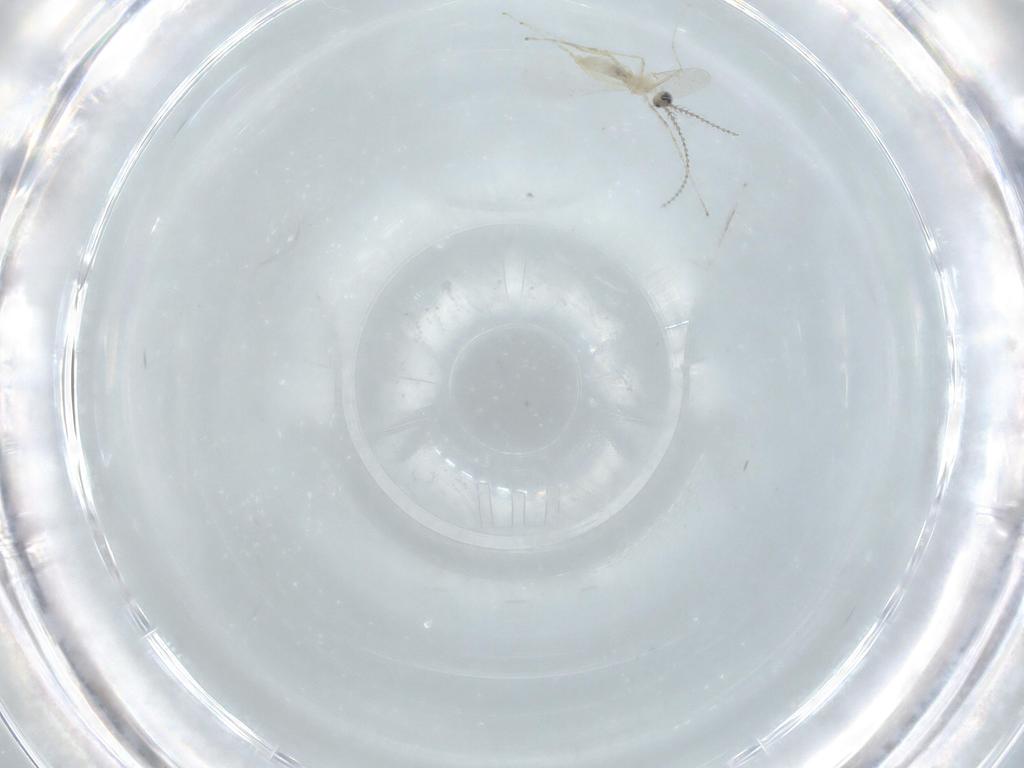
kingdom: Animalia
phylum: Arthropoda
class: Insecta
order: Diptera
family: Cecidomyiidae
